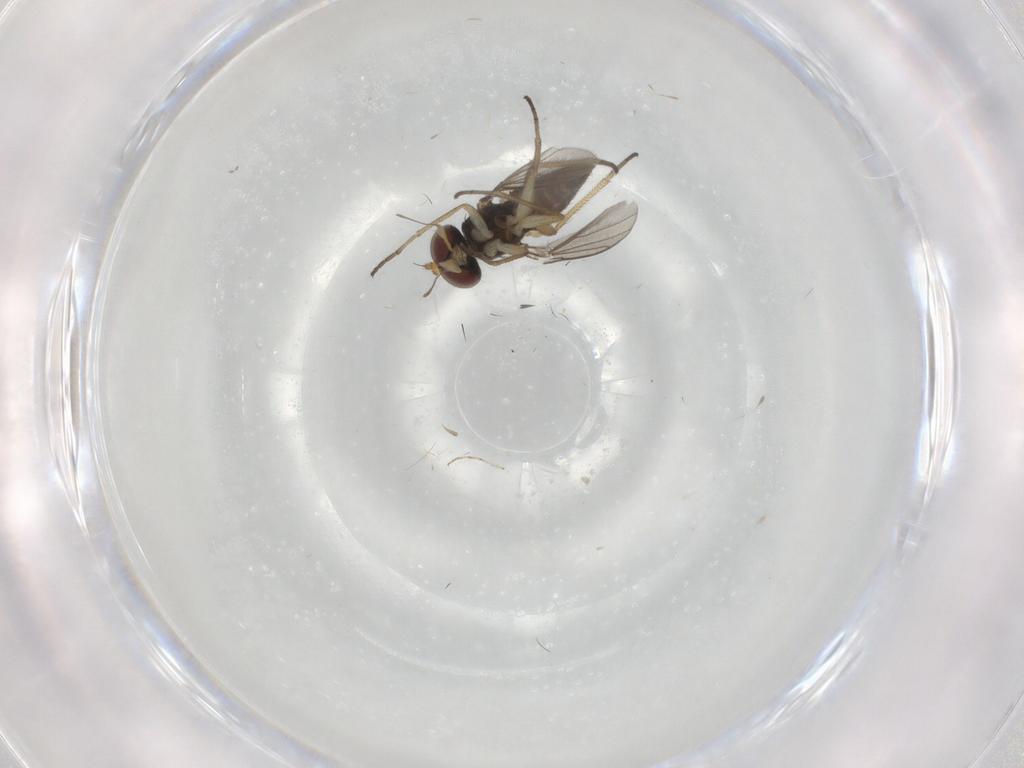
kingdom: Animalia
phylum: Arthropoda
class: Insecta
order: Diptera
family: Dolichopodidae
